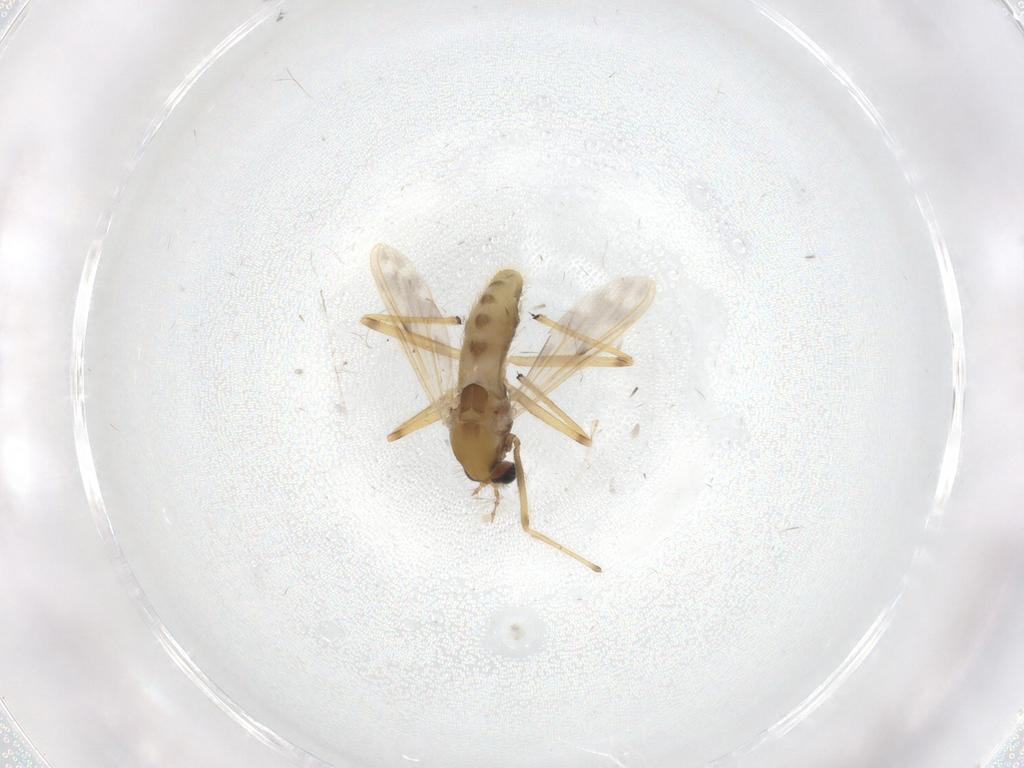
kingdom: Animalia
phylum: Arthropoda
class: Insecta
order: Diptera
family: Chironomidae
